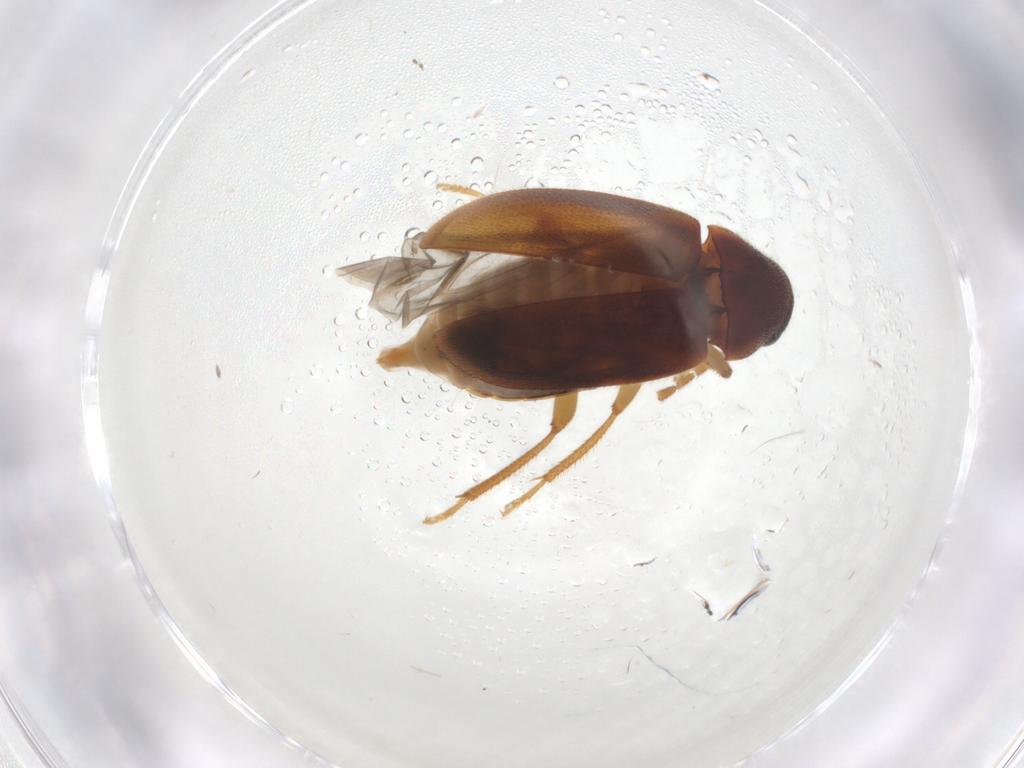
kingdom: Animalia
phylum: Arthropoda
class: Insecta
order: Coleoptera
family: Ptilodactylidae
